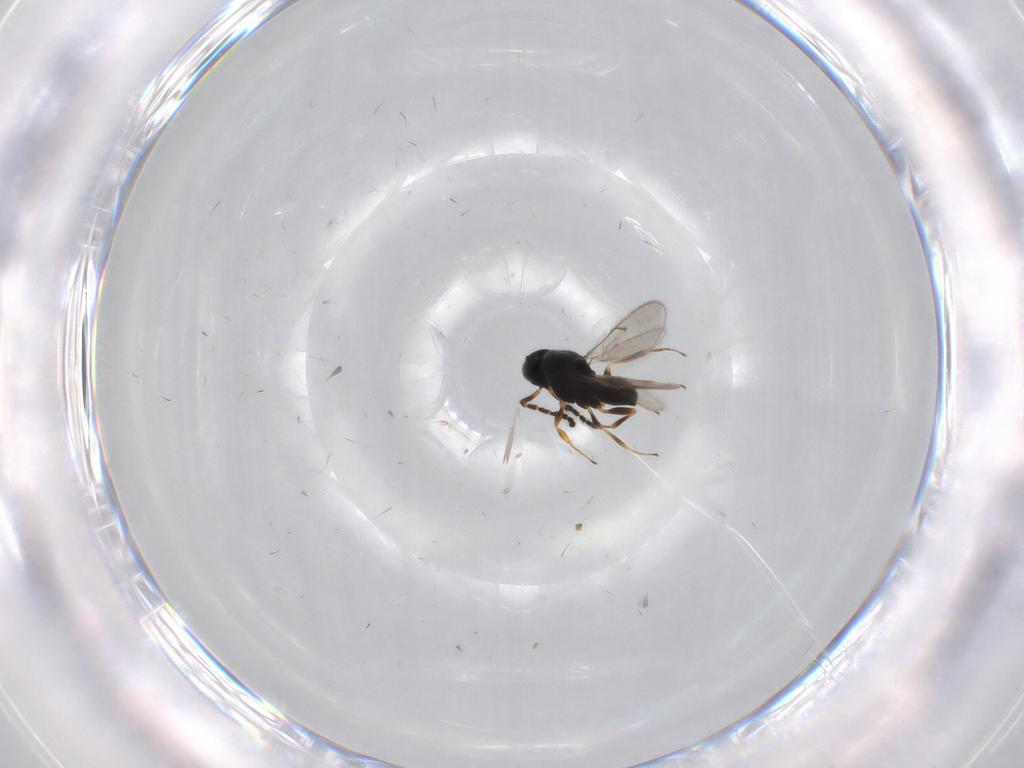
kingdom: Animalia
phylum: Arthropoda
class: Insecta
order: Hymenoptera
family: Scelionidae
